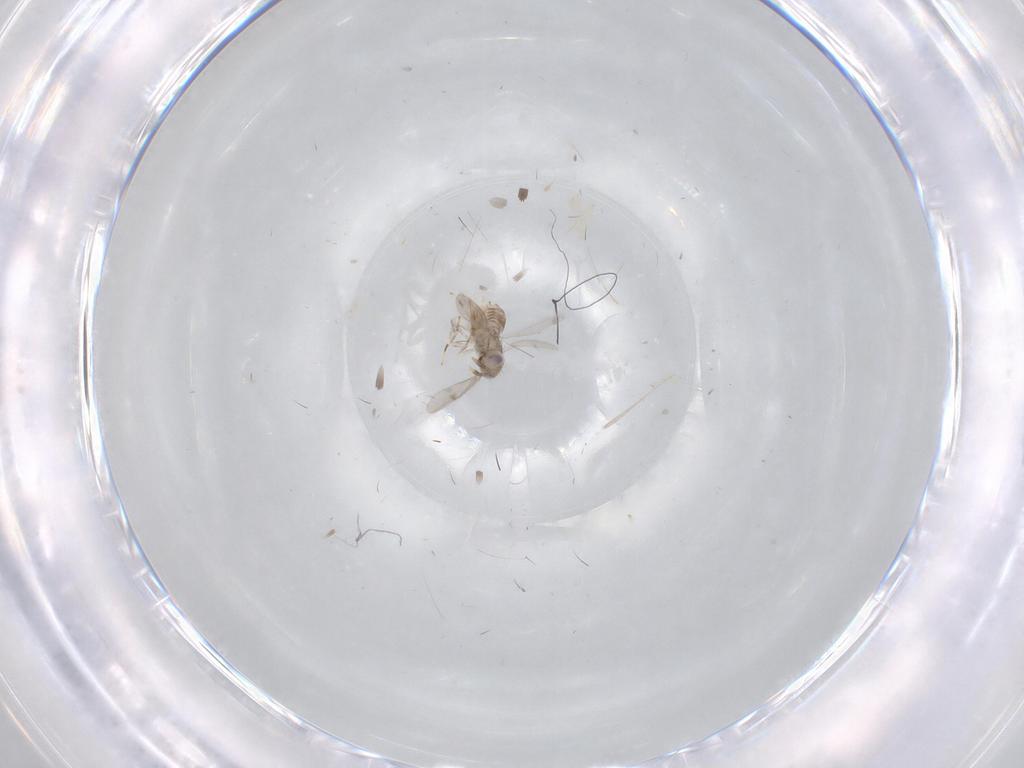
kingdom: Animalia
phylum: Arthropoda
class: Insecta
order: Hymenoptera
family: Aphelinidae
